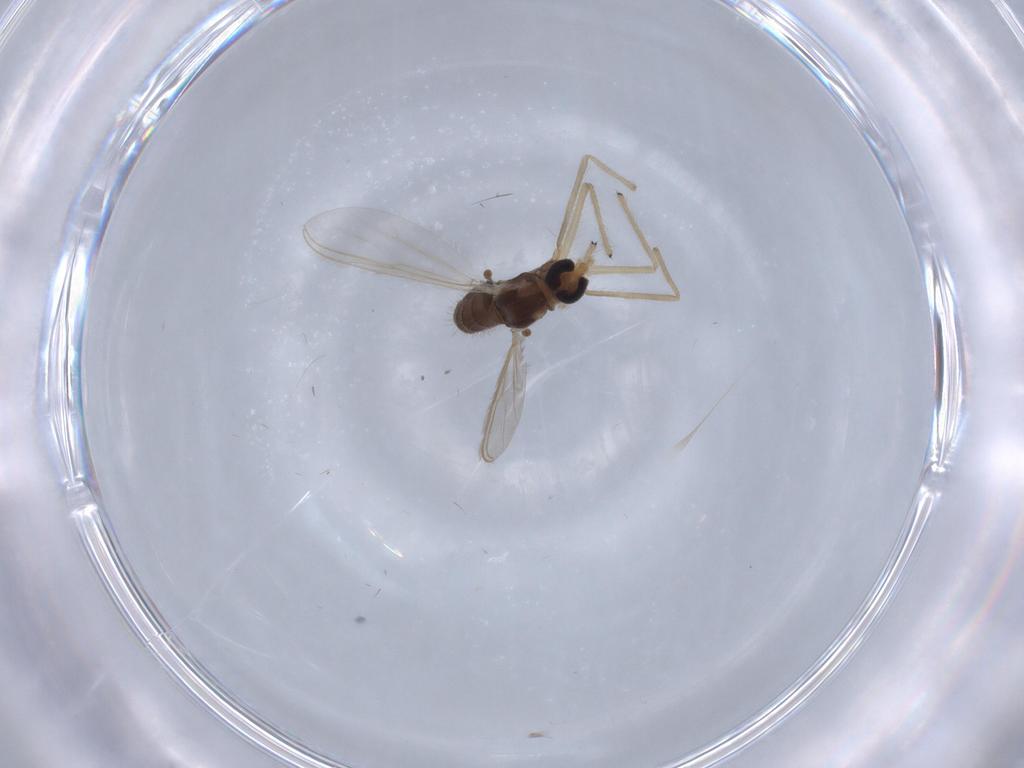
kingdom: Animalia
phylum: Arthropoda
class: Insecta
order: Diptera
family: Chironomidae
